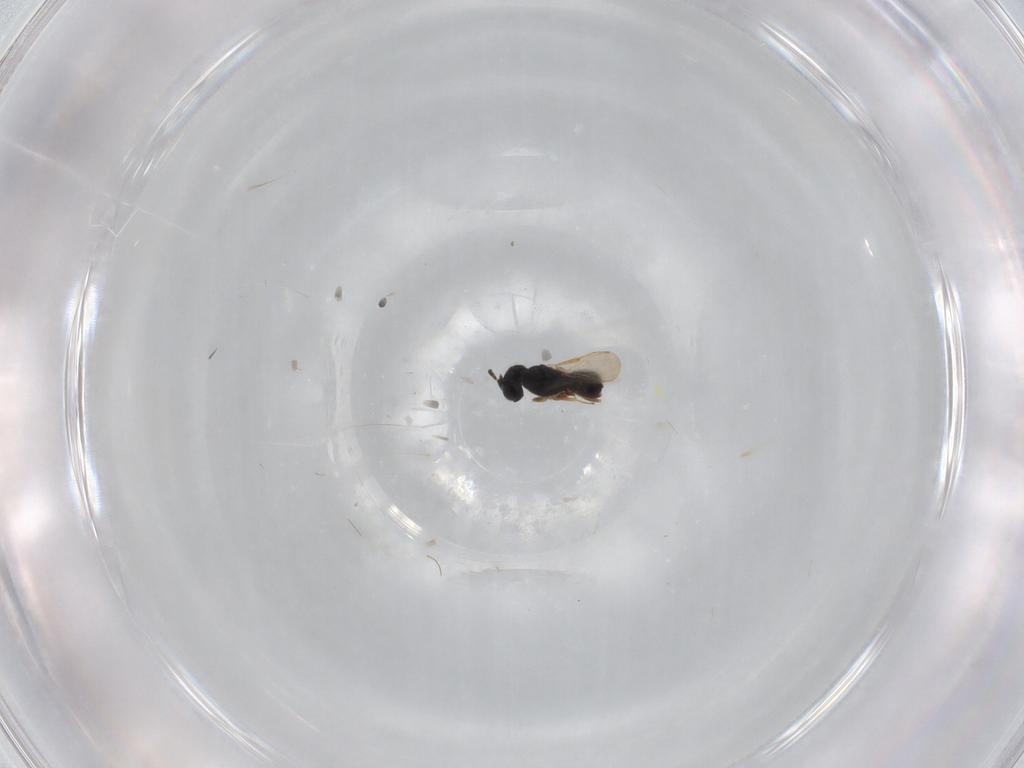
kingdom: Animalia
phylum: Arthropoda
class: Insecta
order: Hymenoptera
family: Scelionidae
